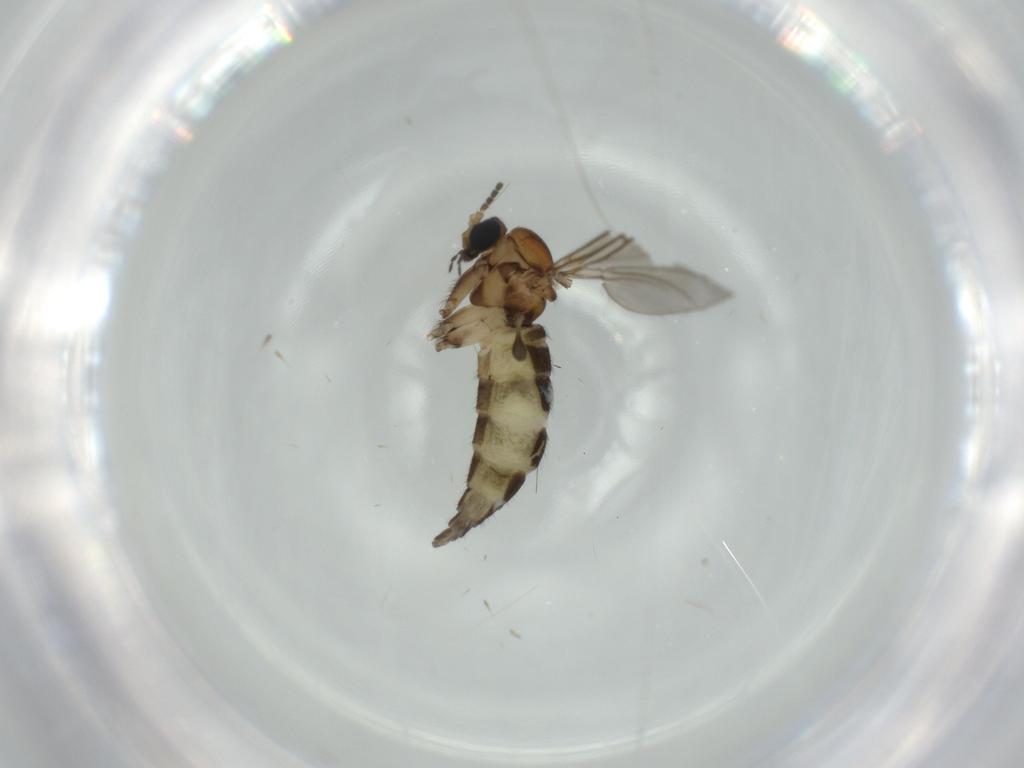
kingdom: Animalia
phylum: Arthropoda
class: Insecta
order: Diptera
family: Sciaridae
